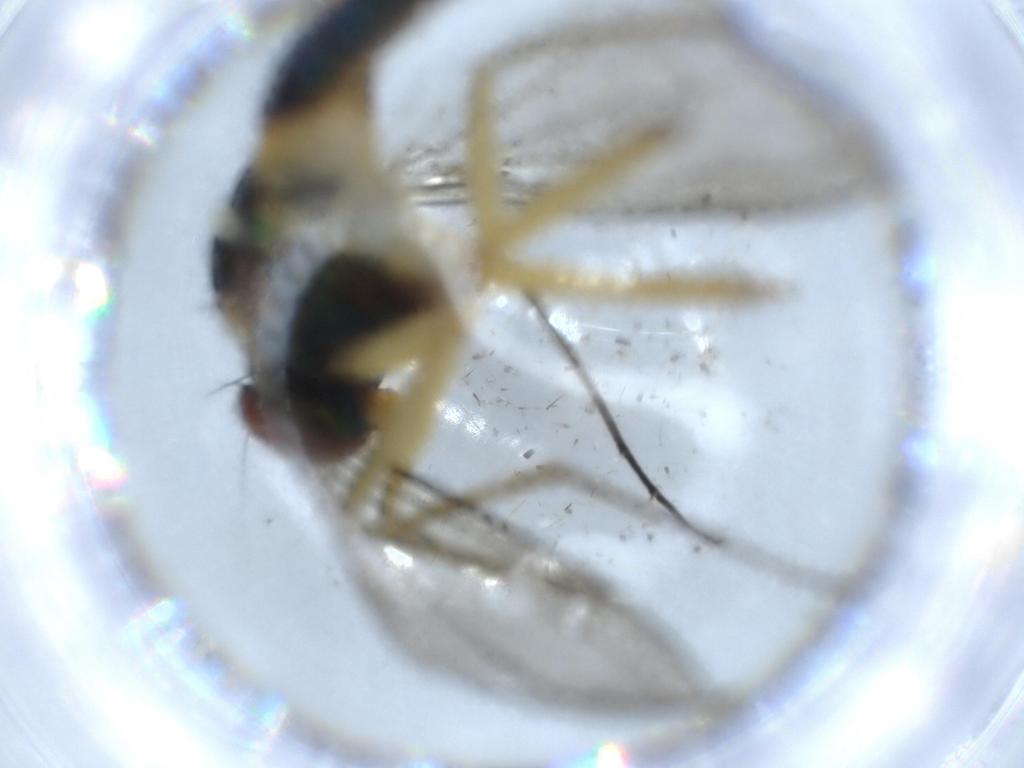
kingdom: Animalia
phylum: Arthropoda
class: Insecta
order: Diptera
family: Dolichopodidae
